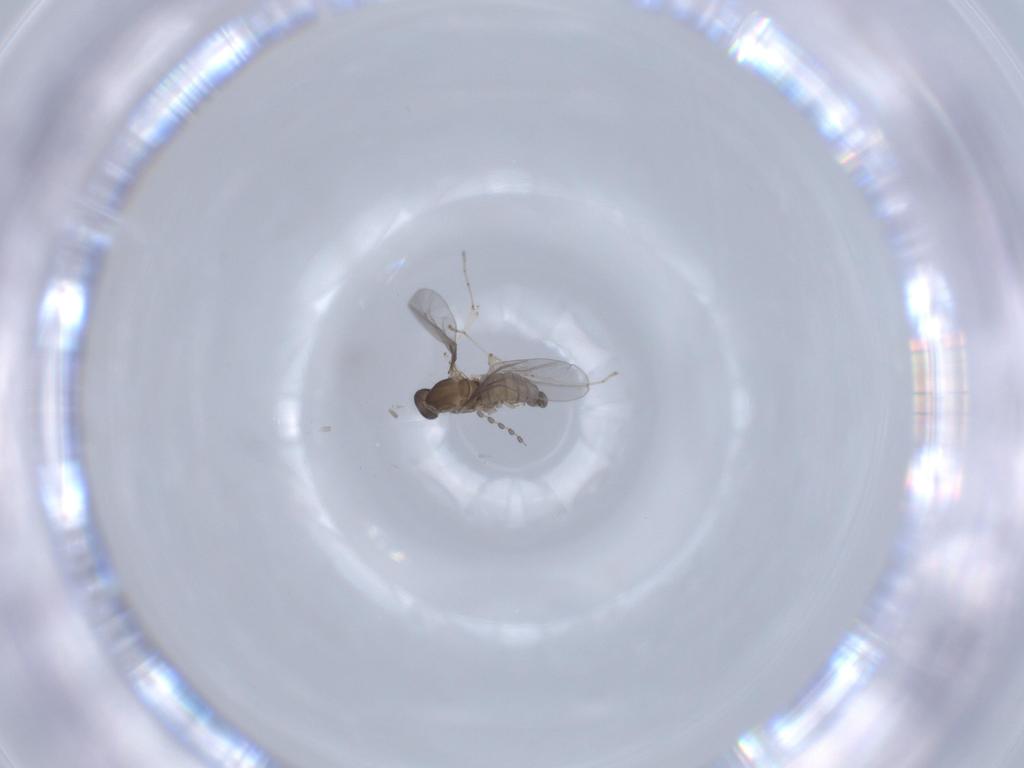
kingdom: Animalia
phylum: Arthropoda
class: Insecta
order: Diptera
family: Cecidomyiidae
